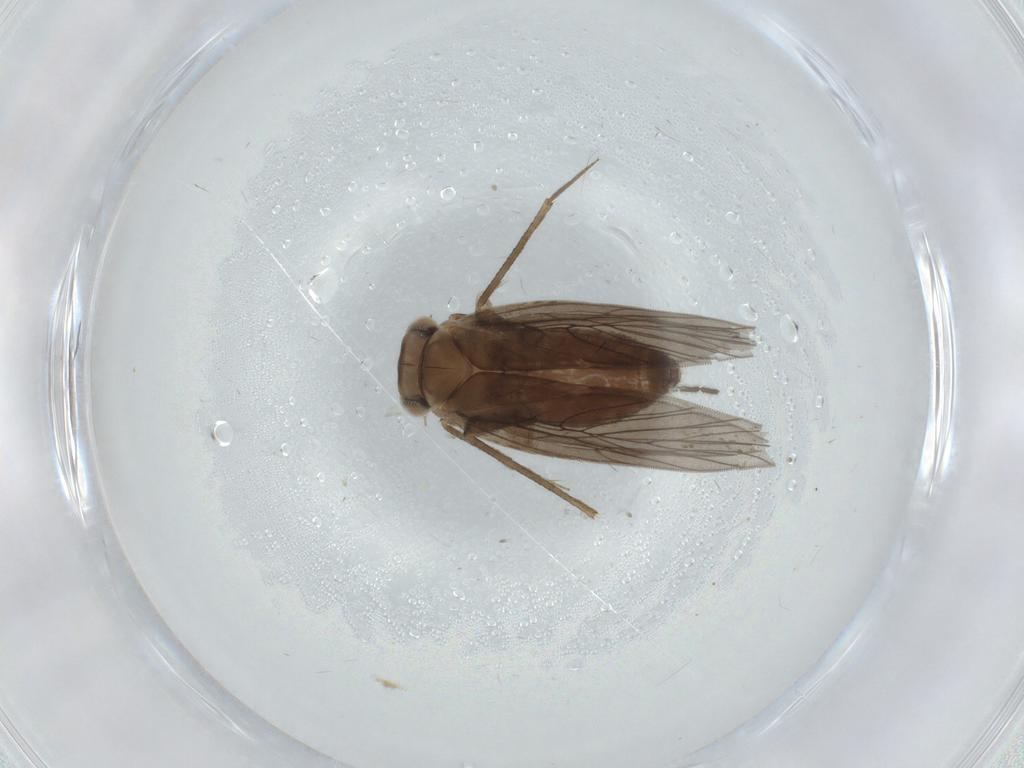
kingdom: Animalia
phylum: Arthropoda
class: Insecta
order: Psocodea
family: Lepidopsocidae
